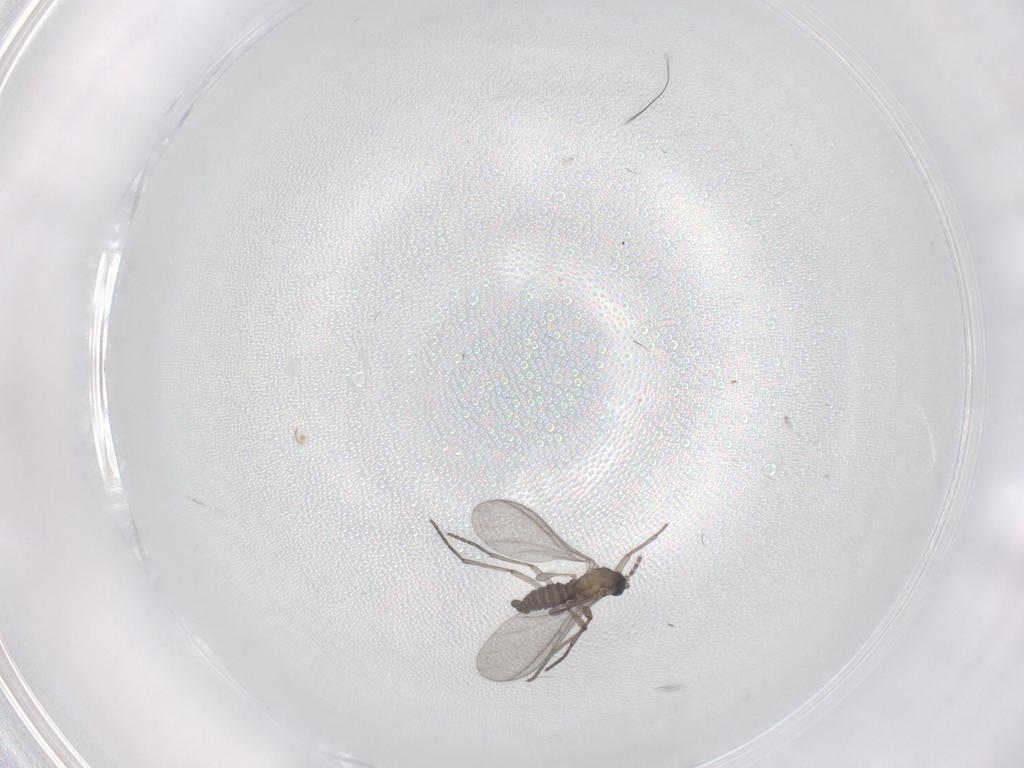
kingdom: Animalia
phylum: Arthropoda
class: Insecta
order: Diptera
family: Sciaridae
